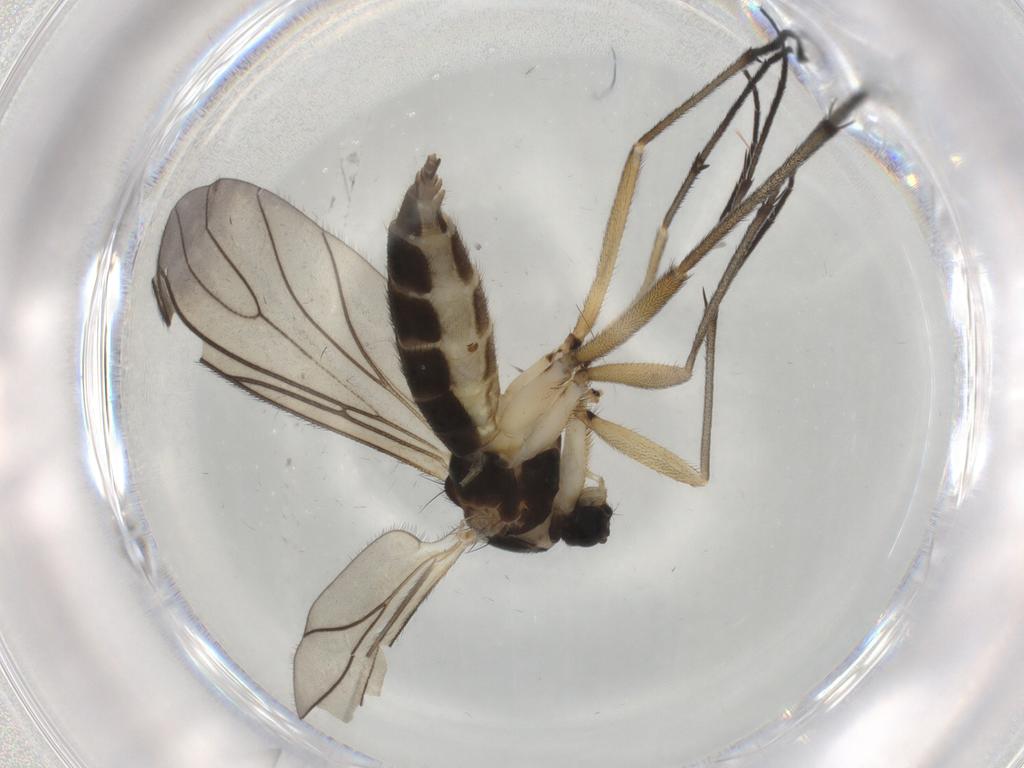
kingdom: Animalia
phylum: Arthropoda
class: Insecta
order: Diptera
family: Sciaridae
